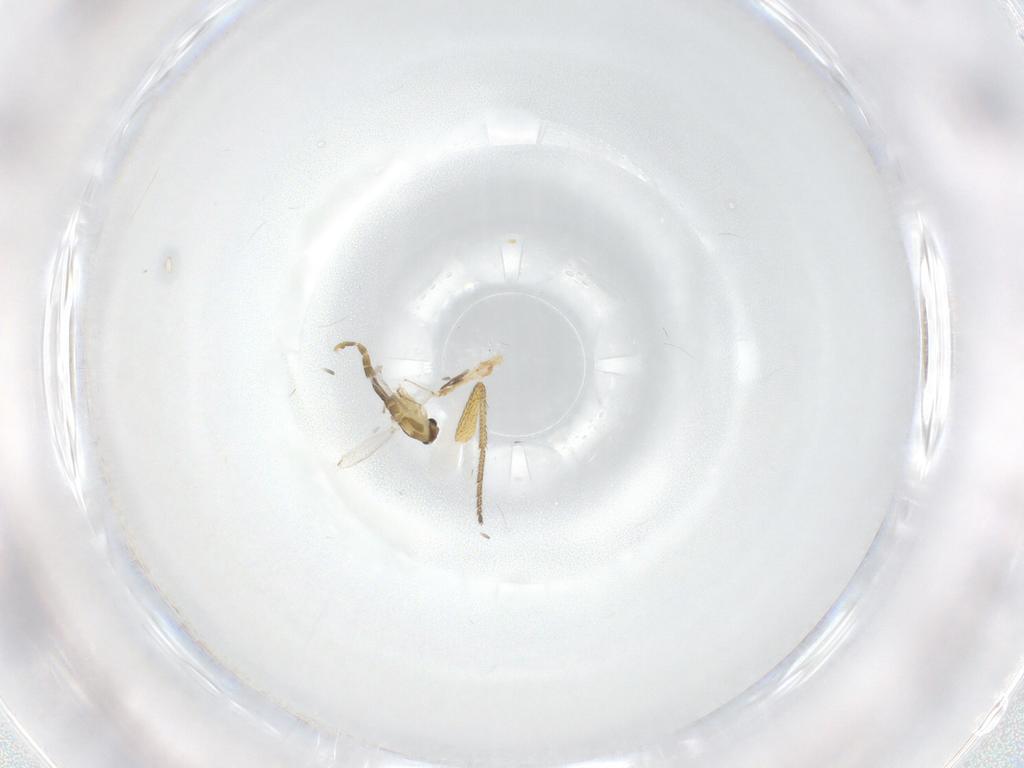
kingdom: Animalia
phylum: Arthropoda
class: Insecta
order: Diptera
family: Chironomidae
